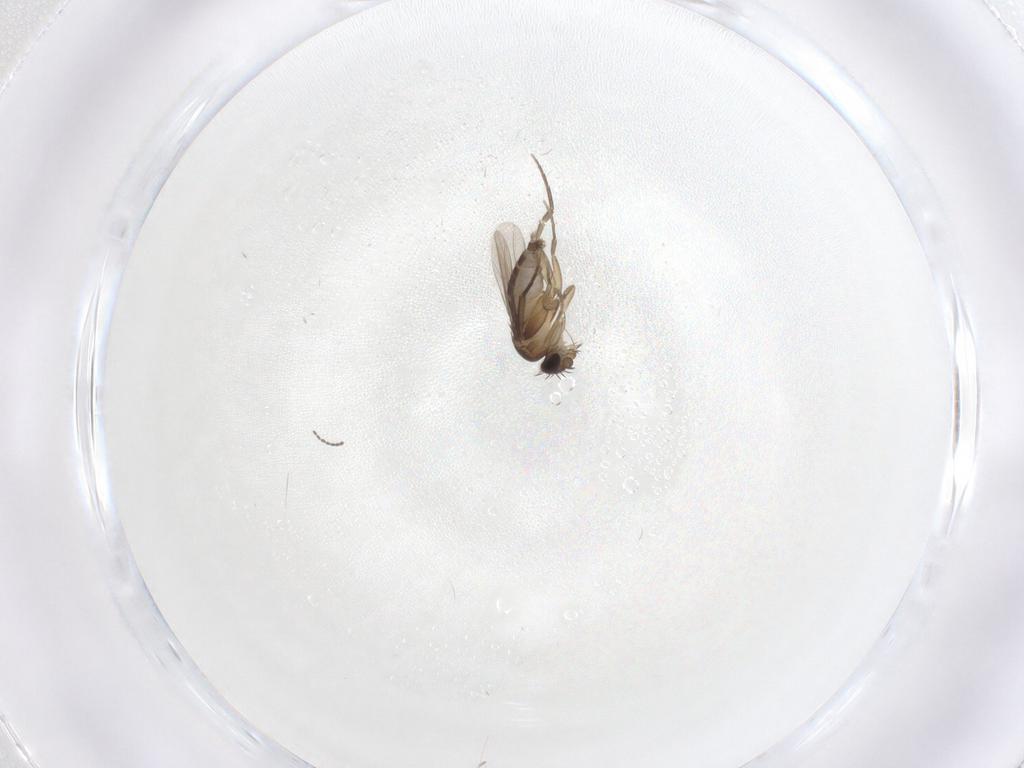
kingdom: Animalia
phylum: Arthropoda
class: Insecta
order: Diptera
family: Phoridae
